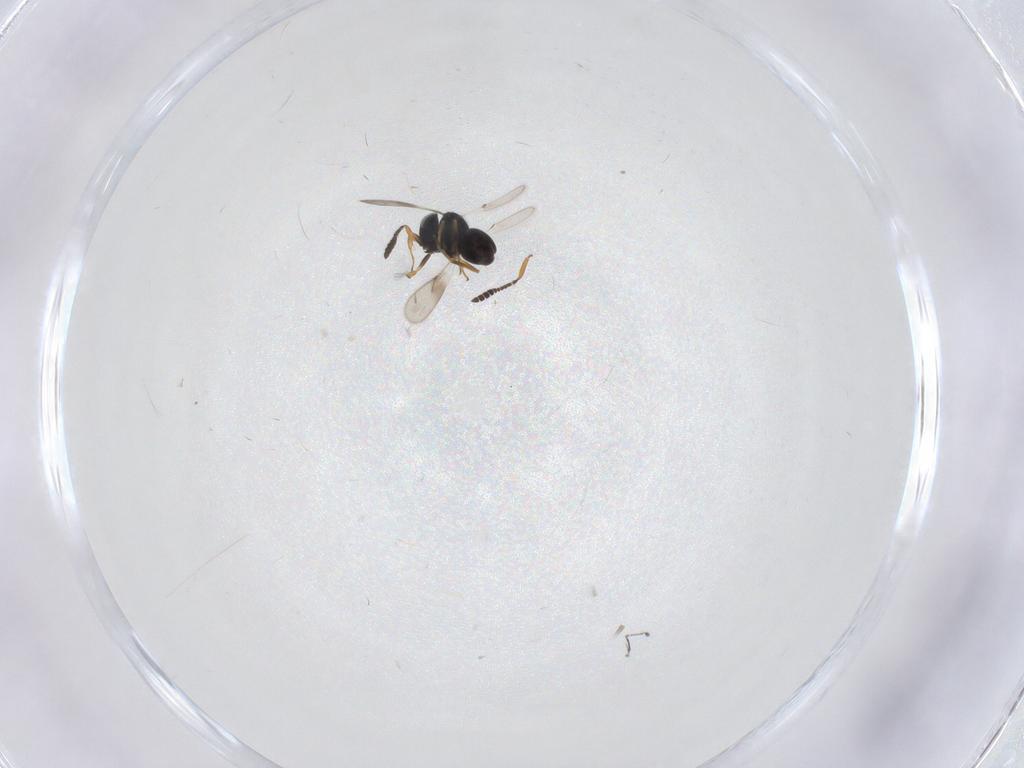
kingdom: Animalia
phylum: Arthropoda
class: Insecta
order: Hymenoptera
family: Scelionidae
